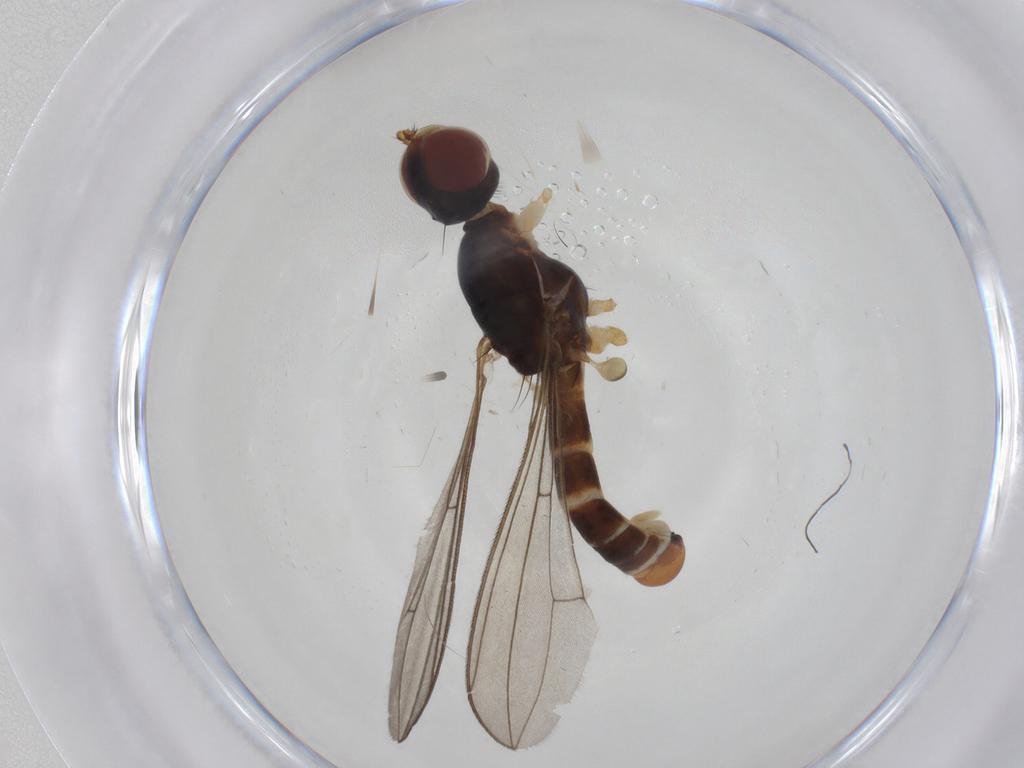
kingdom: Animalia
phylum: Arthropoda
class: Insecta
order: Diptera
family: Micropezidae
